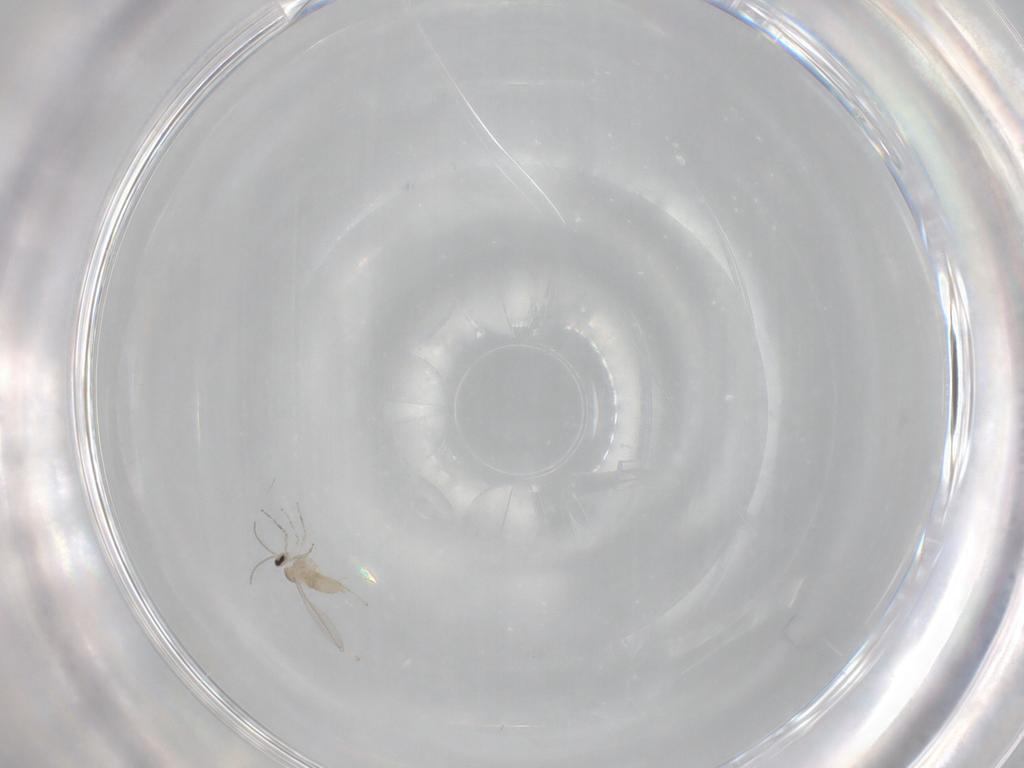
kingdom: Animalia
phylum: Arthropoda
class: Insecta
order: Diptera
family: Cecidomyiidae
